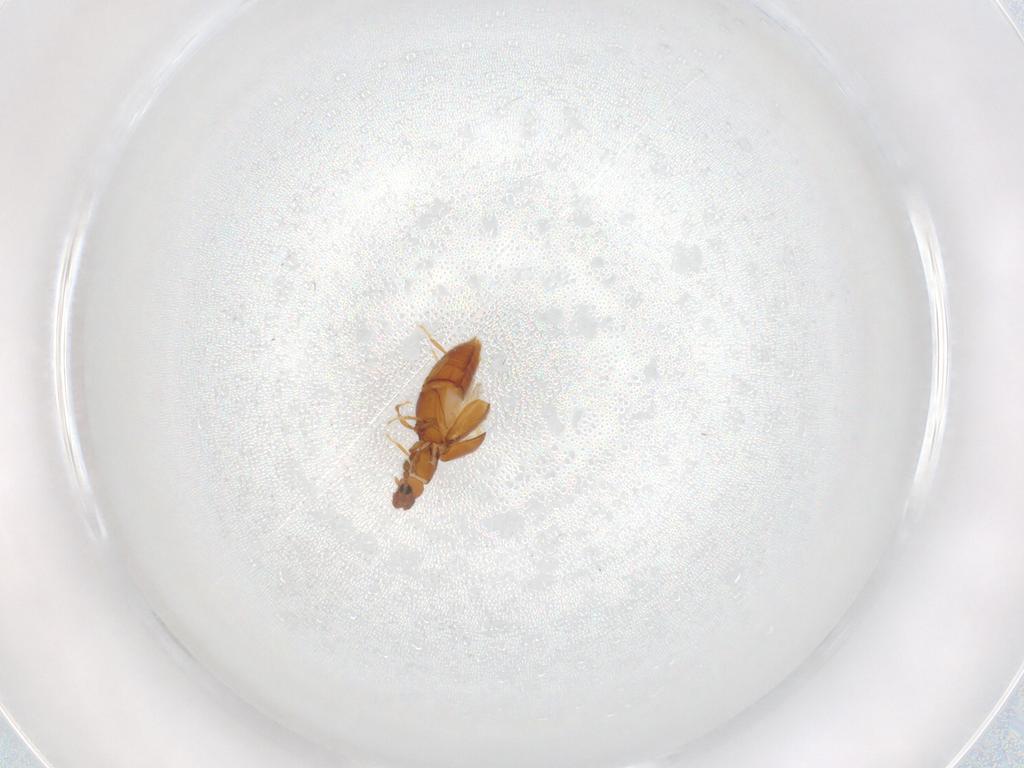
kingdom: Animalia
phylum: Arthropoda
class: Insecta
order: Coleoptera
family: Staphylinidae
